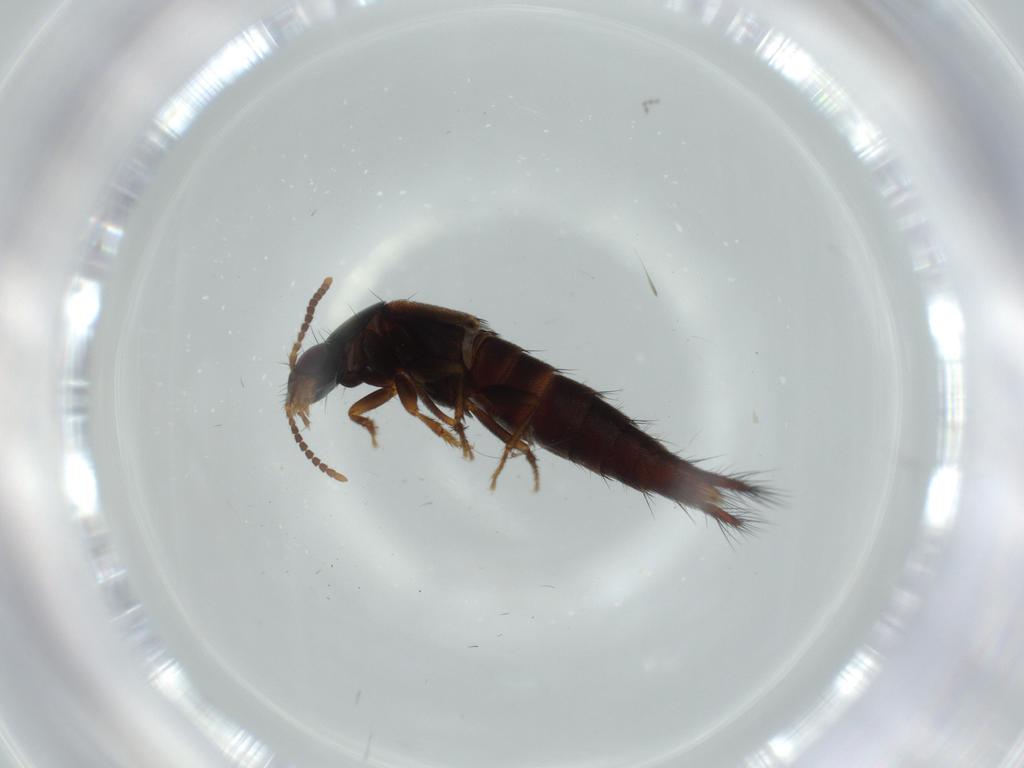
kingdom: Animalia
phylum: Arthropoda
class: Insecta
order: Coleoptera
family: Staphylinidae
